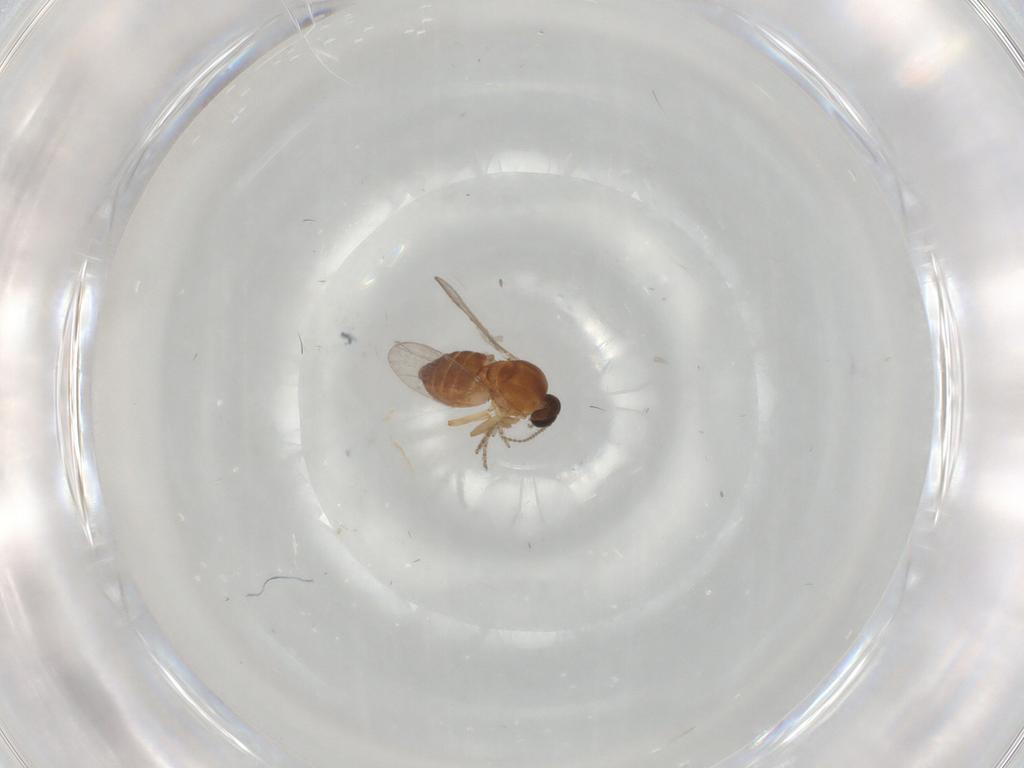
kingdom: Animalia
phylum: Arthropoda
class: Insecta
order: Diptera
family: Ceratopogonidae
